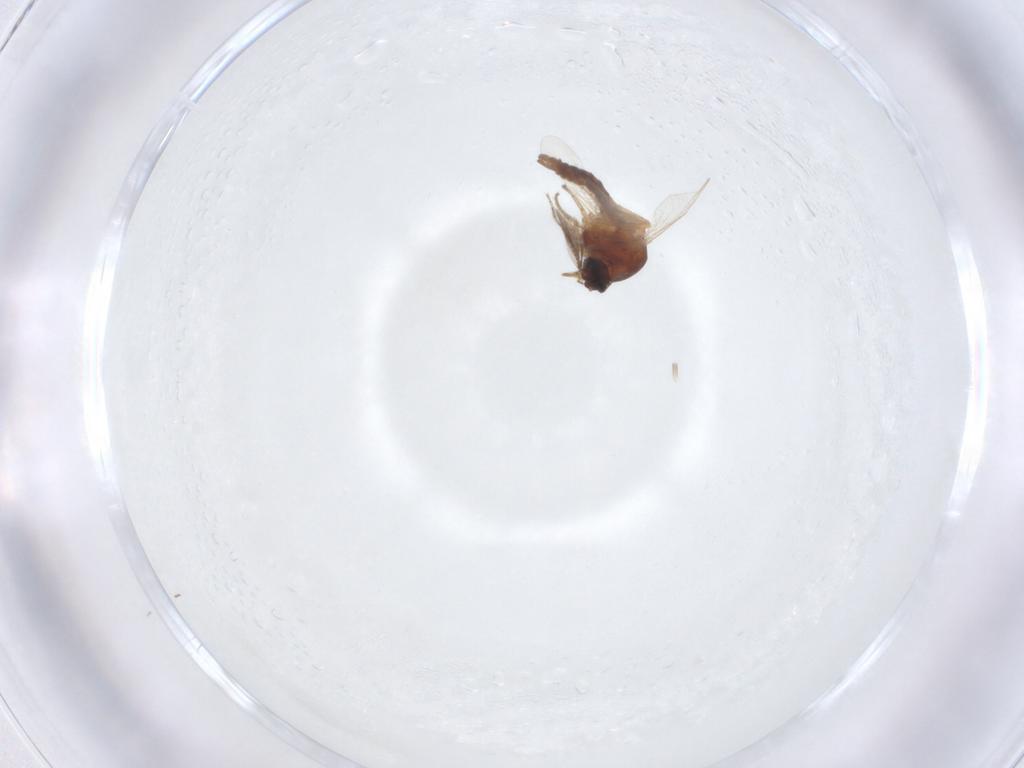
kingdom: Animalia
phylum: Arthropoda
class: Insecta
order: Diptera
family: Ceratopogonidae
